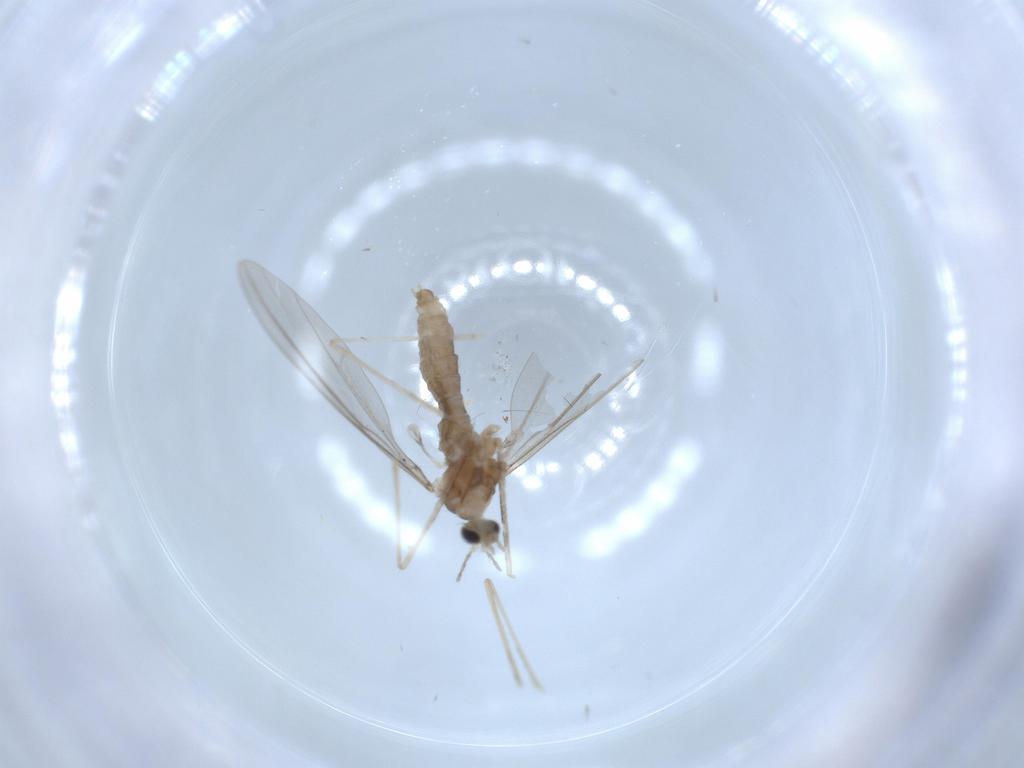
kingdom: Animalia
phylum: Arthropoda
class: Insecta
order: Diptera
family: Cecidomyiidae
